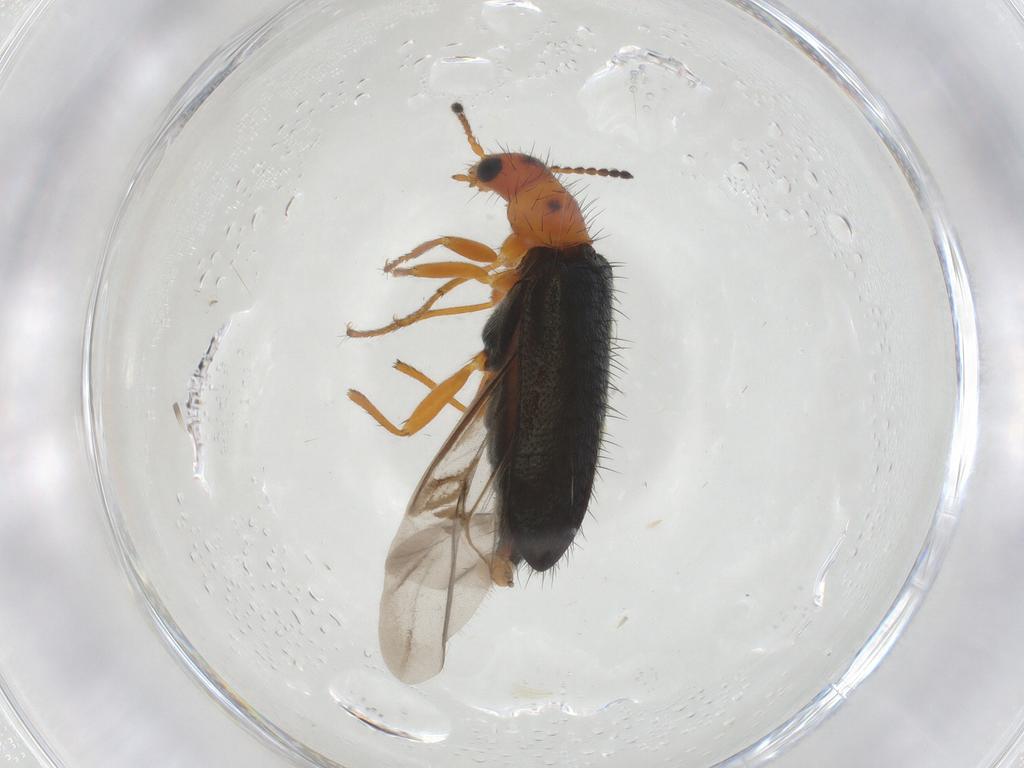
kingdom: Animalia
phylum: Arthropoda
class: Insecta
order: Coleoptera
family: Melyridae
